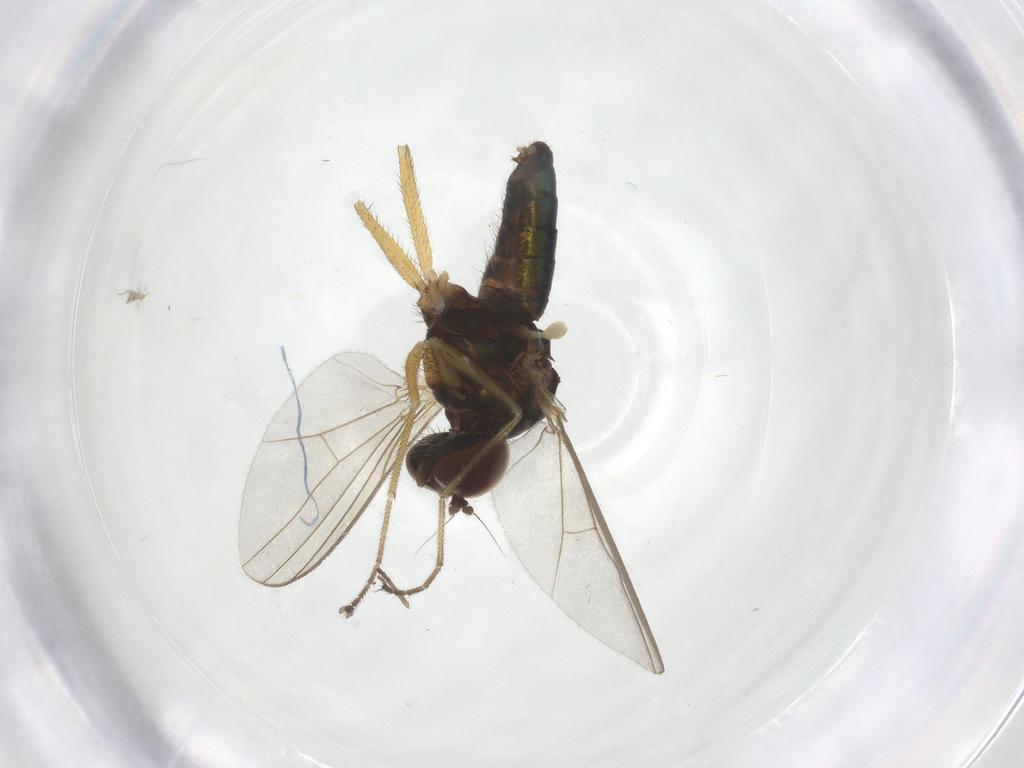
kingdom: Animalia
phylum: Arthropoda
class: Insecta
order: Diptera
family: Dolichopodidae
